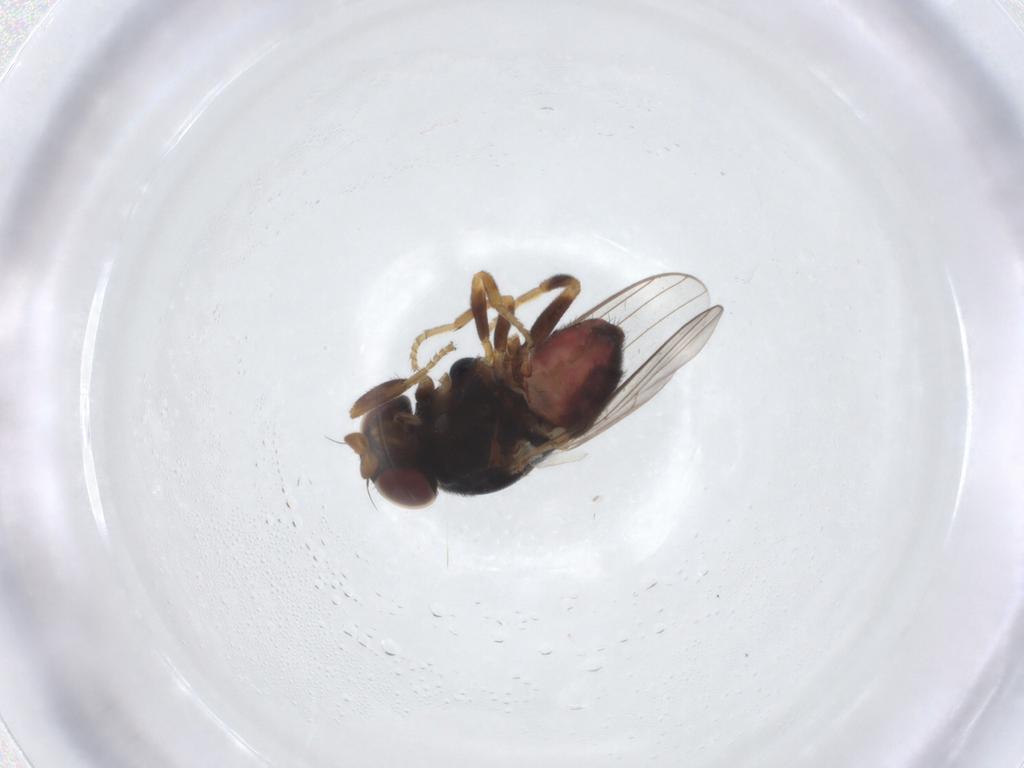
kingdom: Animalia
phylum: Arthropoda
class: Insecta
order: Diptera
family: Chloropidae
